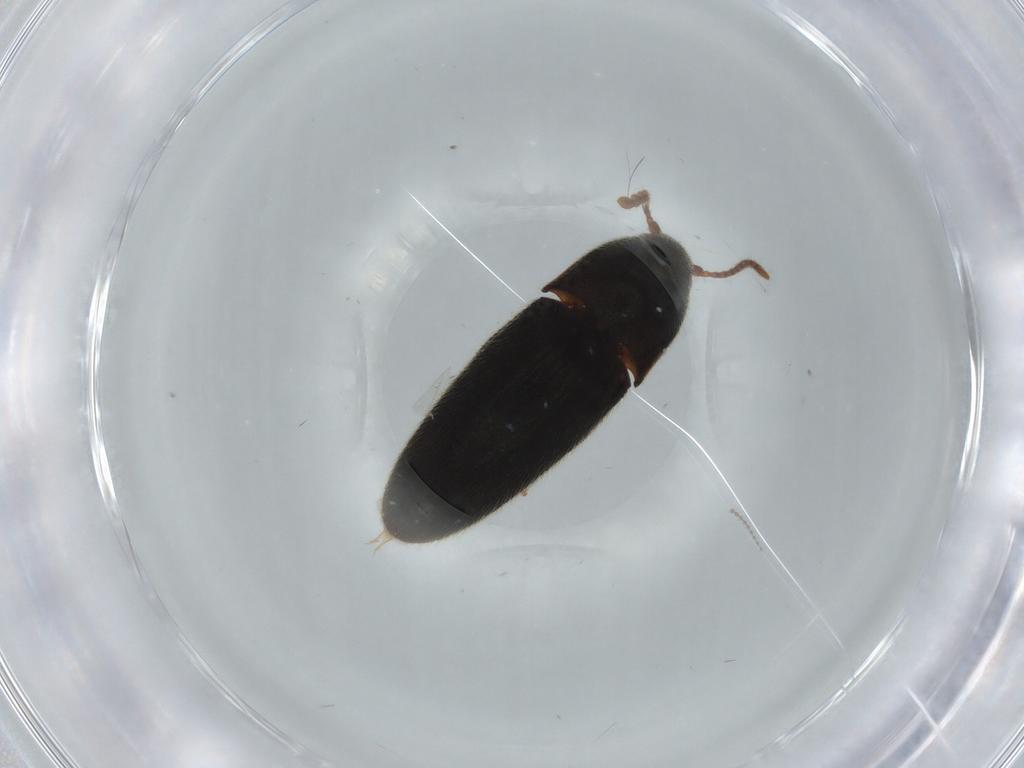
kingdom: Animalia
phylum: Arthropoda
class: Insecta
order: Coleoptera
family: Elateridae
